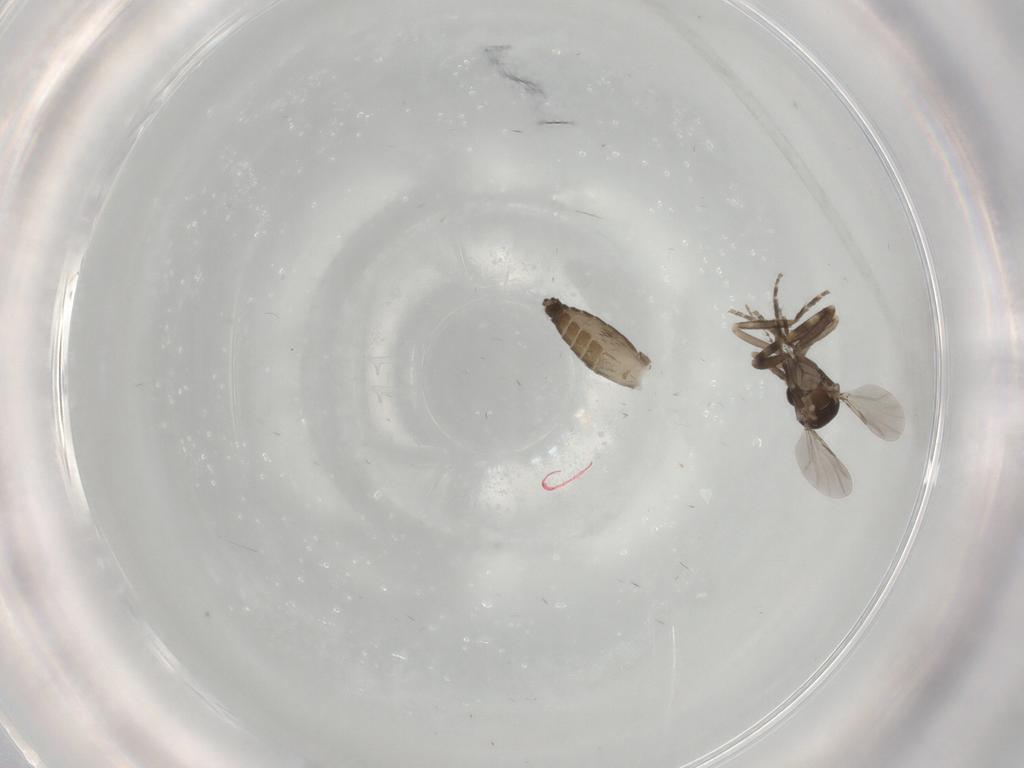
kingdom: Animalia
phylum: Arthropoda
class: Insecta
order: Diptera
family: Ceratopogonidae
